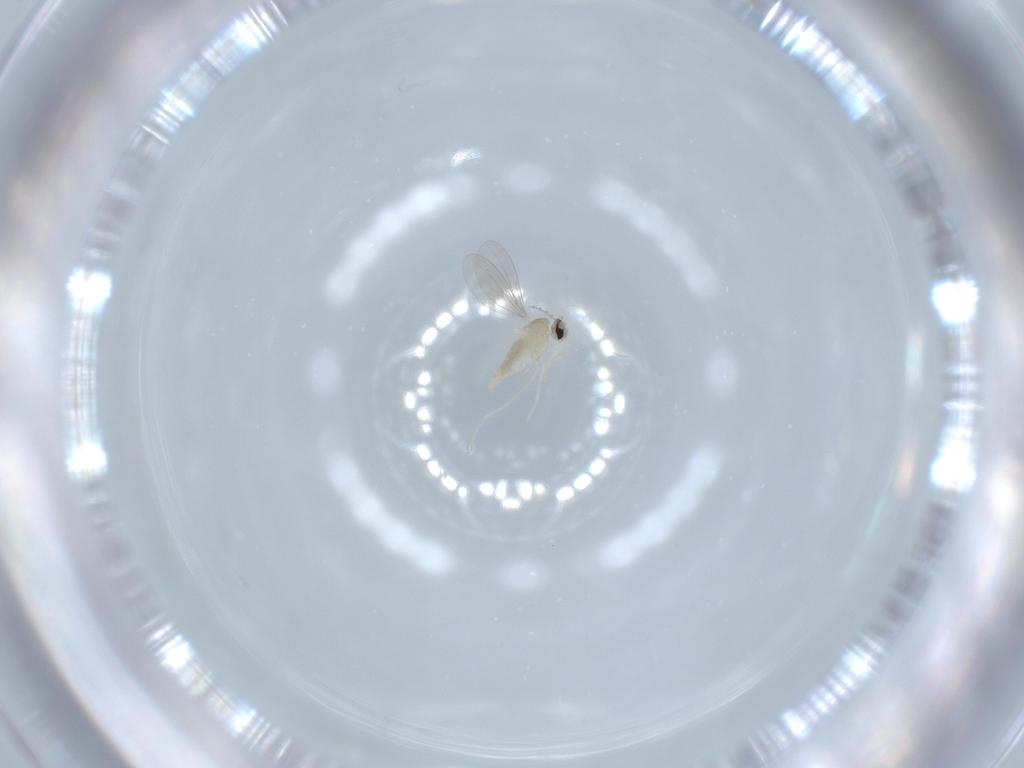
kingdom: Animalia
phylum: Arthropoda
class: Insecta
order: Diptera
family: Cecidomyiidae
